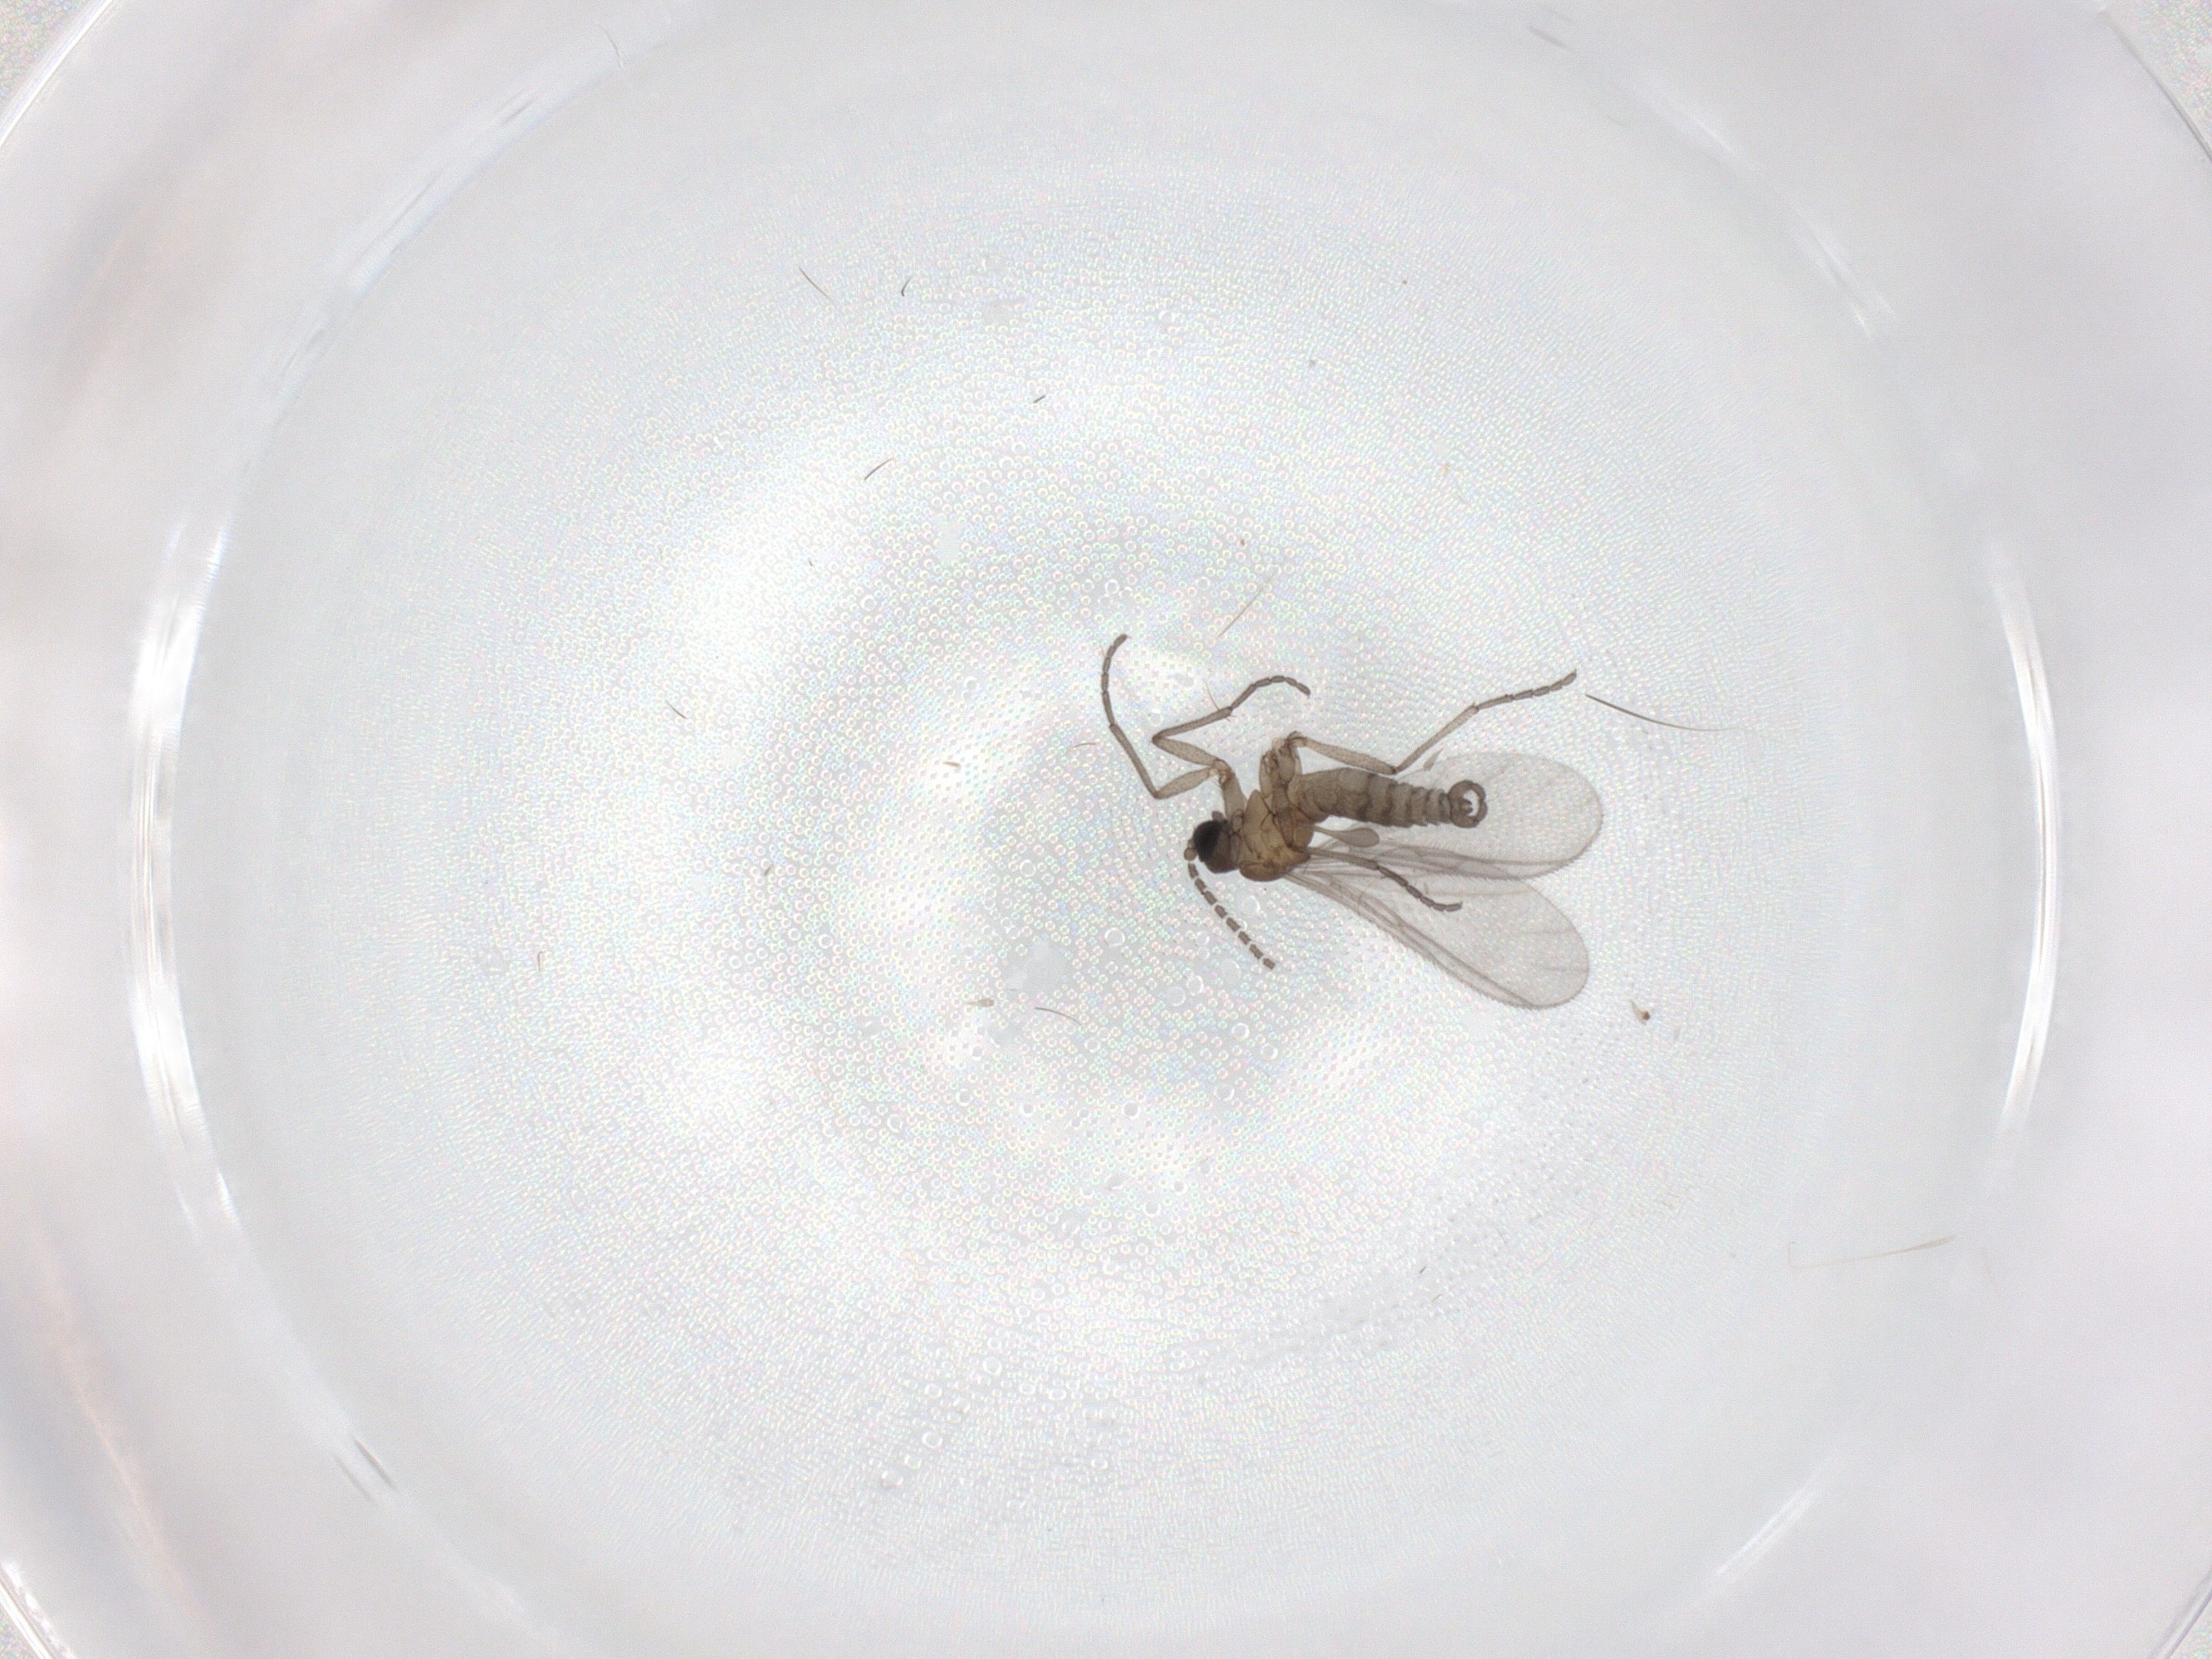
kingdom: Animalia
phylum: Arthropoda
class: Insecta
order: Diptera
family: Sciaridae
